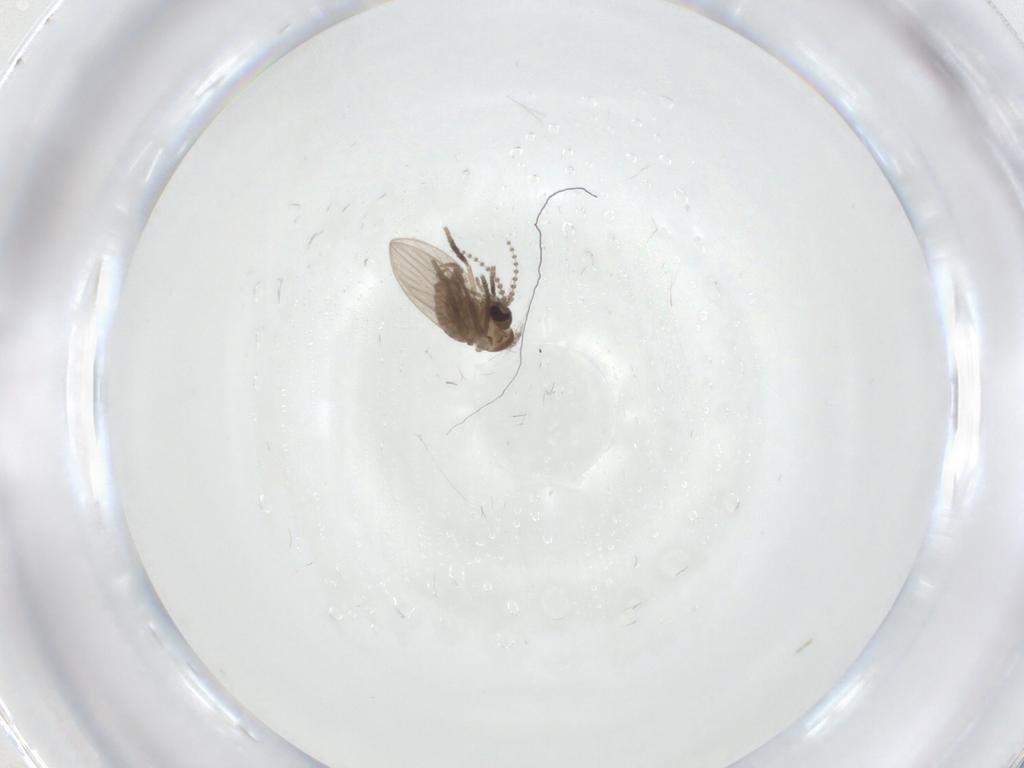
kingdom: Animalia
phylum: Arthropoda
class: Insecta
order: Diptera
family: Psychodidae
